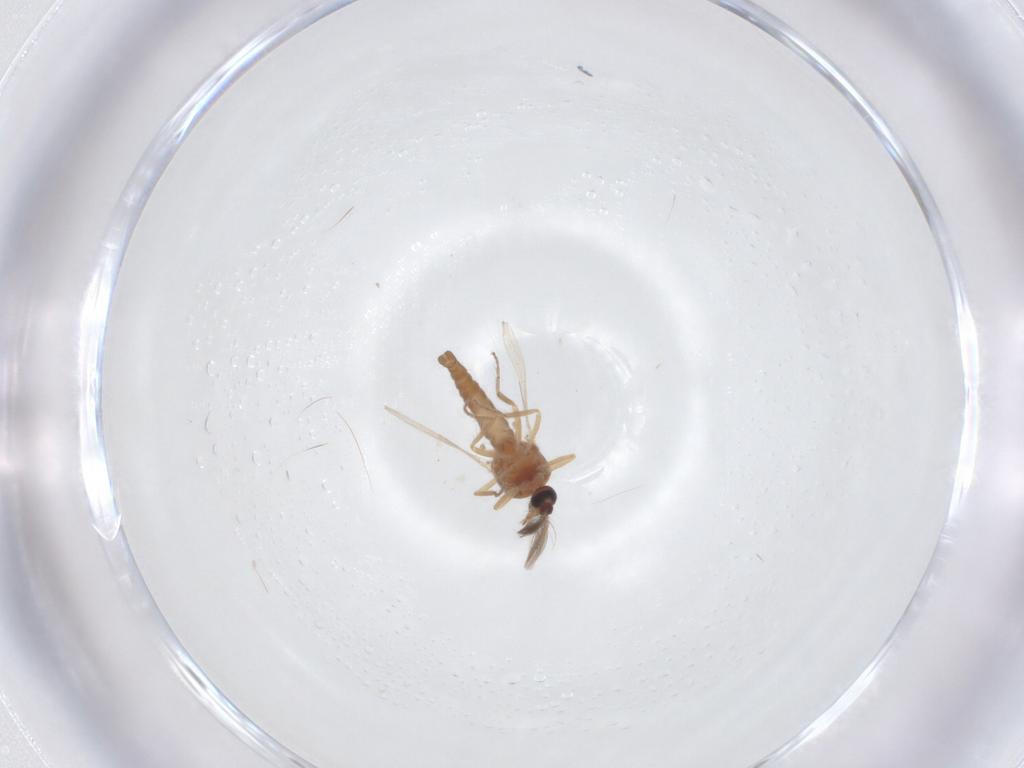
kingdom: Animalia
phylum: Arthropoda
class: Insecta
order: Diptera
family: Ceratopogonidae
